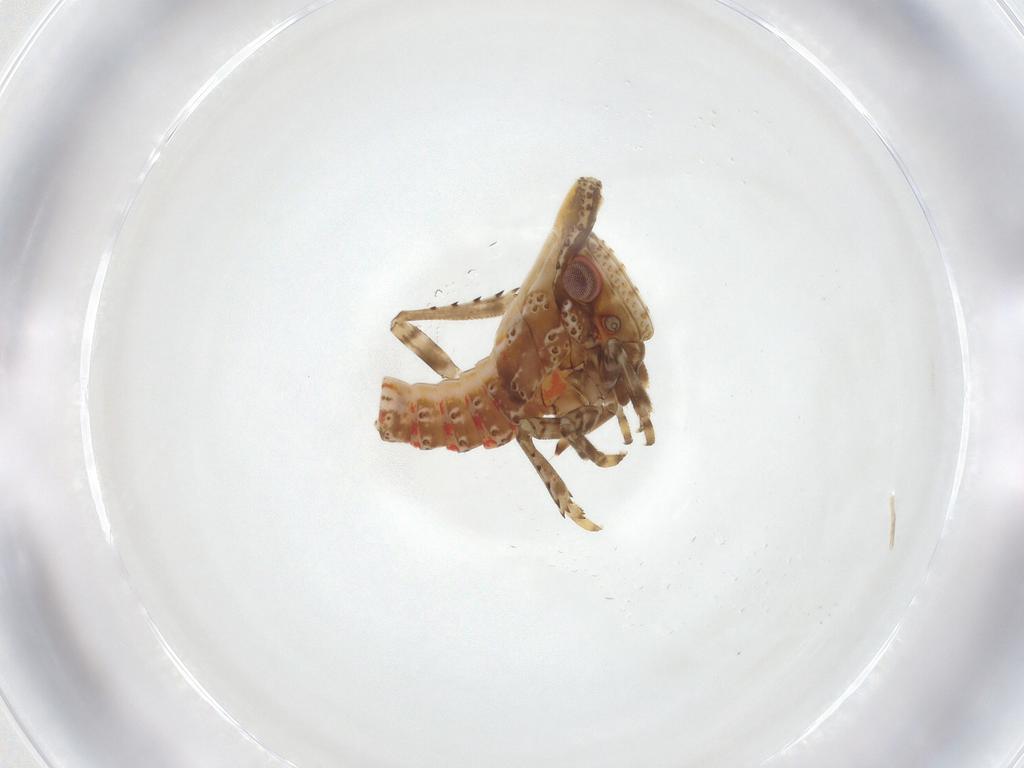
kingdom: Animalia
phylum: Arthropoda
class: Insecta
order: Hemiptera
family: Fulgoroidea_incertae_sedis
